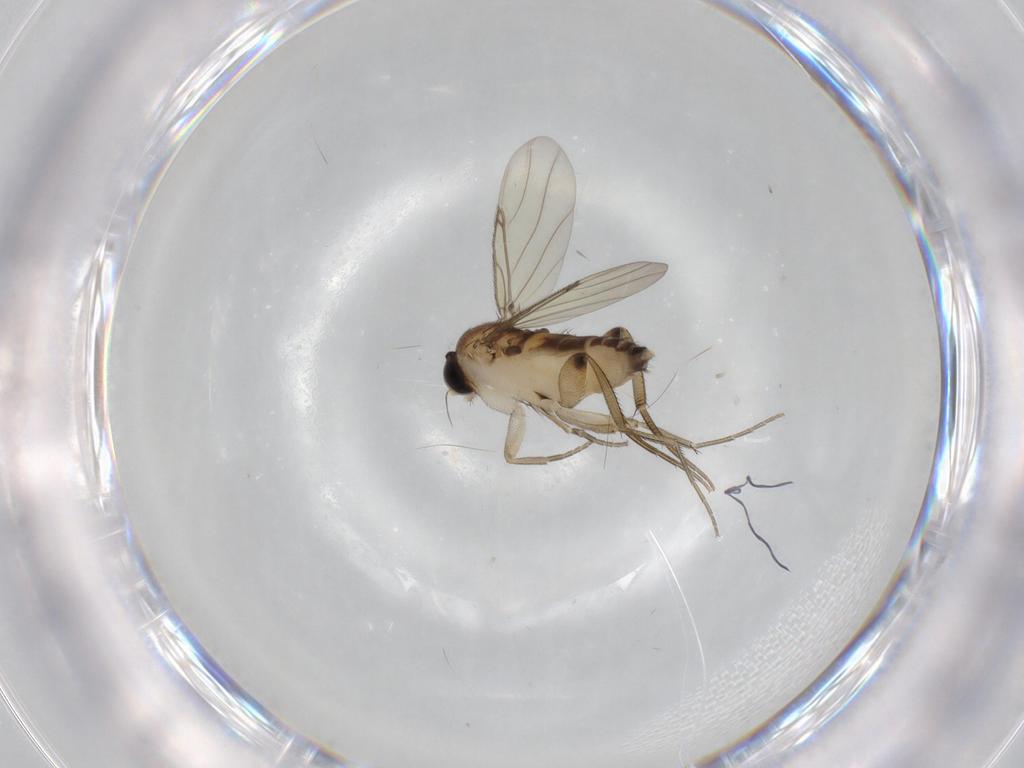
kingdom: Animalia
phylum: Arthropoda
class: Insecta
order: Diptera
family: Phoridae
